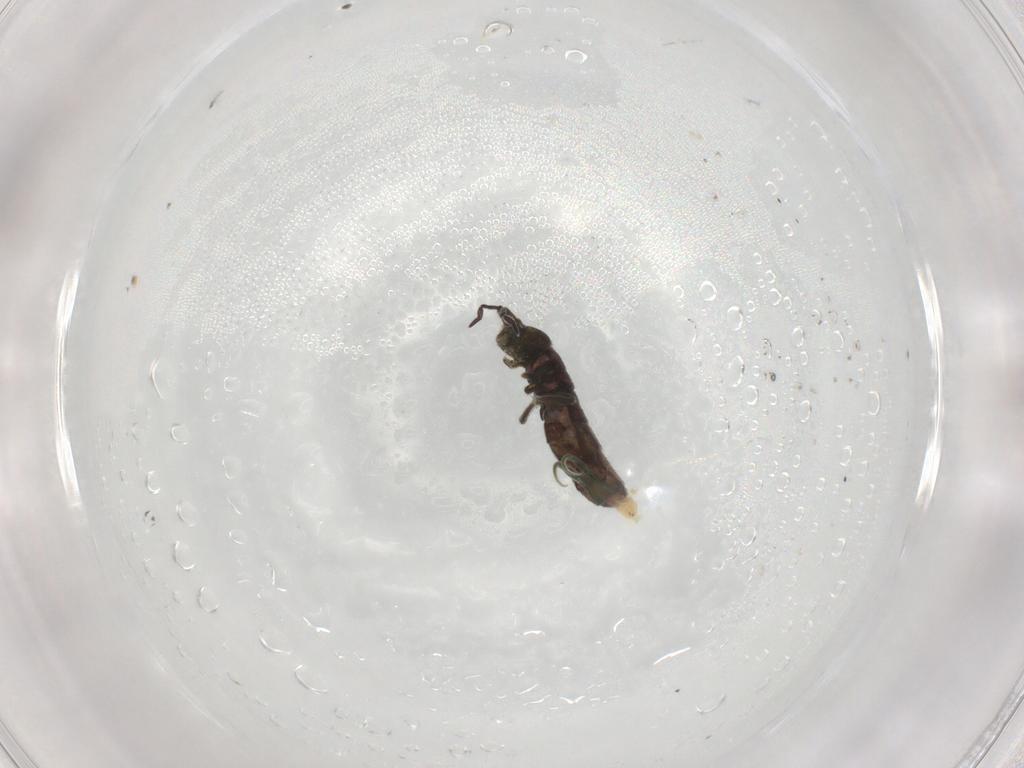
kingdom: Animalia
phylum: Arthropoda
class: Collembola
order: Entomobryomorpha
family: Isotomidae
